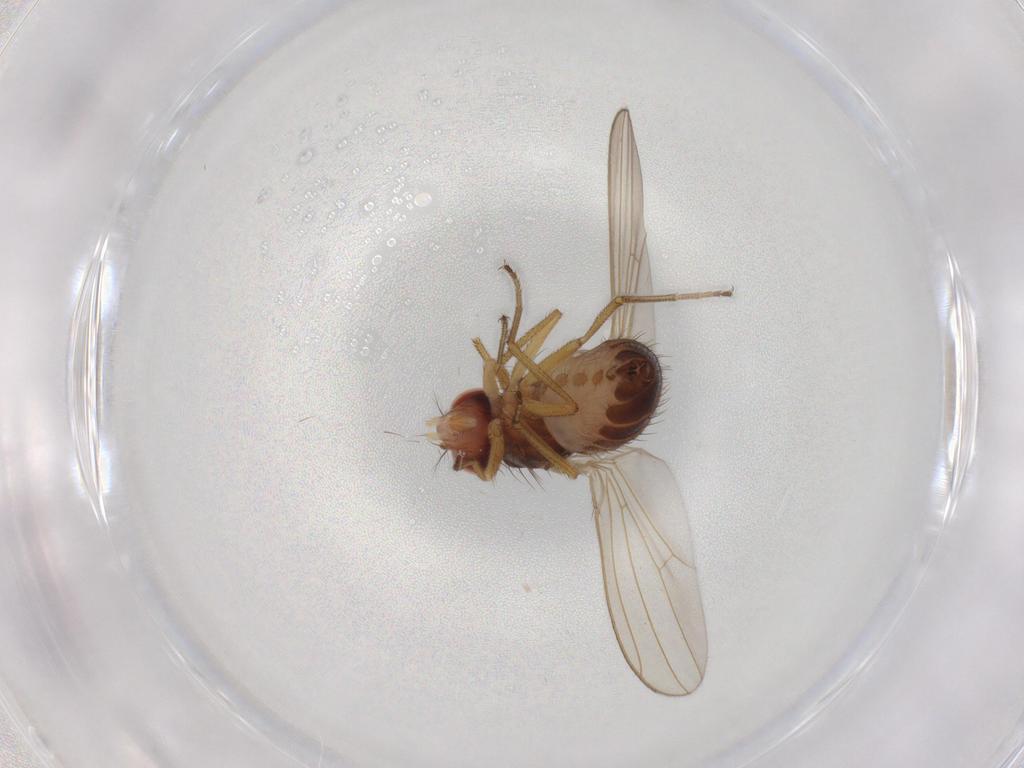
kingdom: Animalia
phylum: Arthropoda
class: Insecta
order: Diptera
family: Drosophilidae
